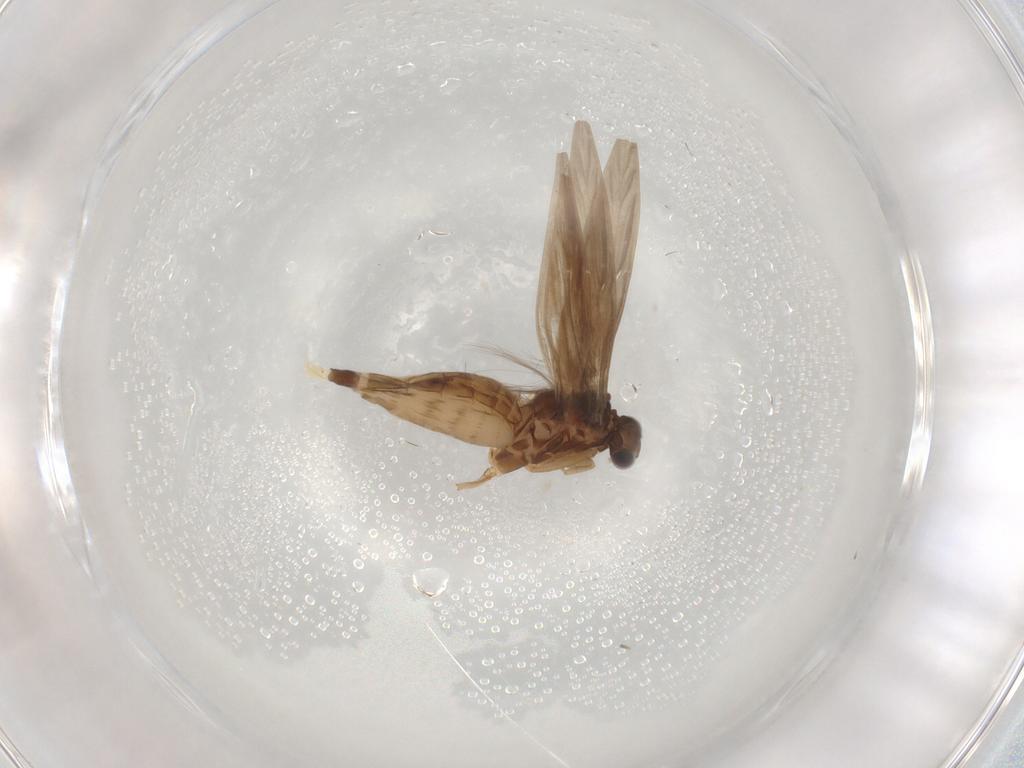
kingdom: Animalia
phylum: Arthropoda
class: Insecta
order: Trichoptera
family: Hydroptilidae
